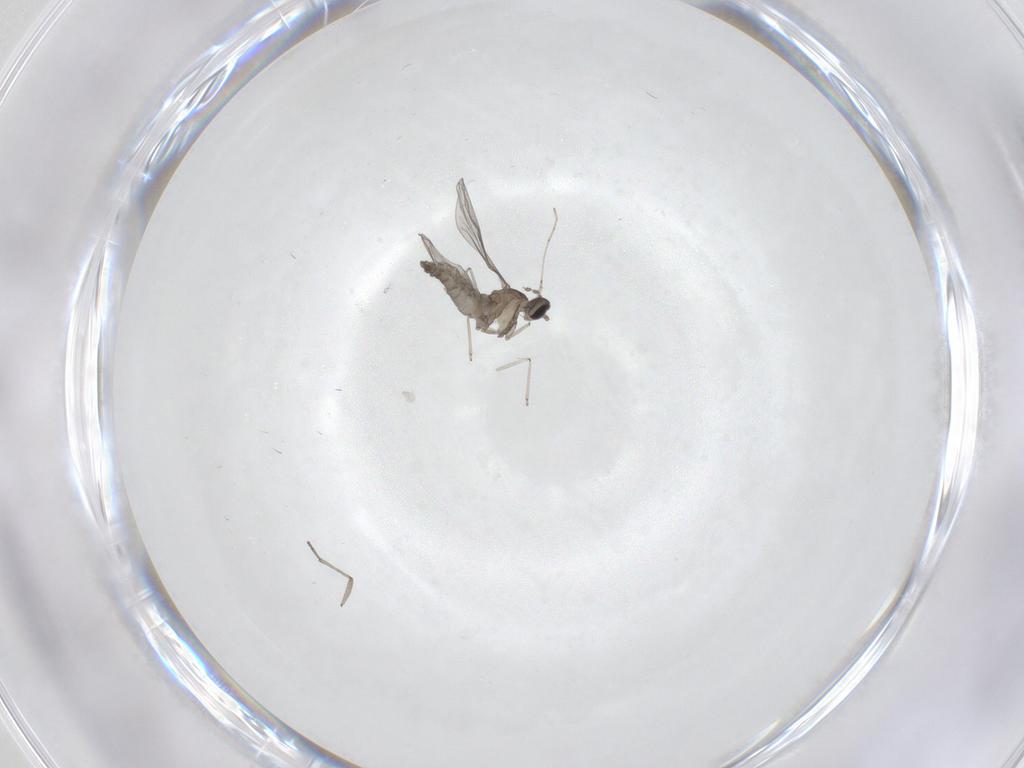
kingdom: Animalia
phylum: Arthropoda
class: Insecta
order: Diptera
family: Cecidomyiidae
